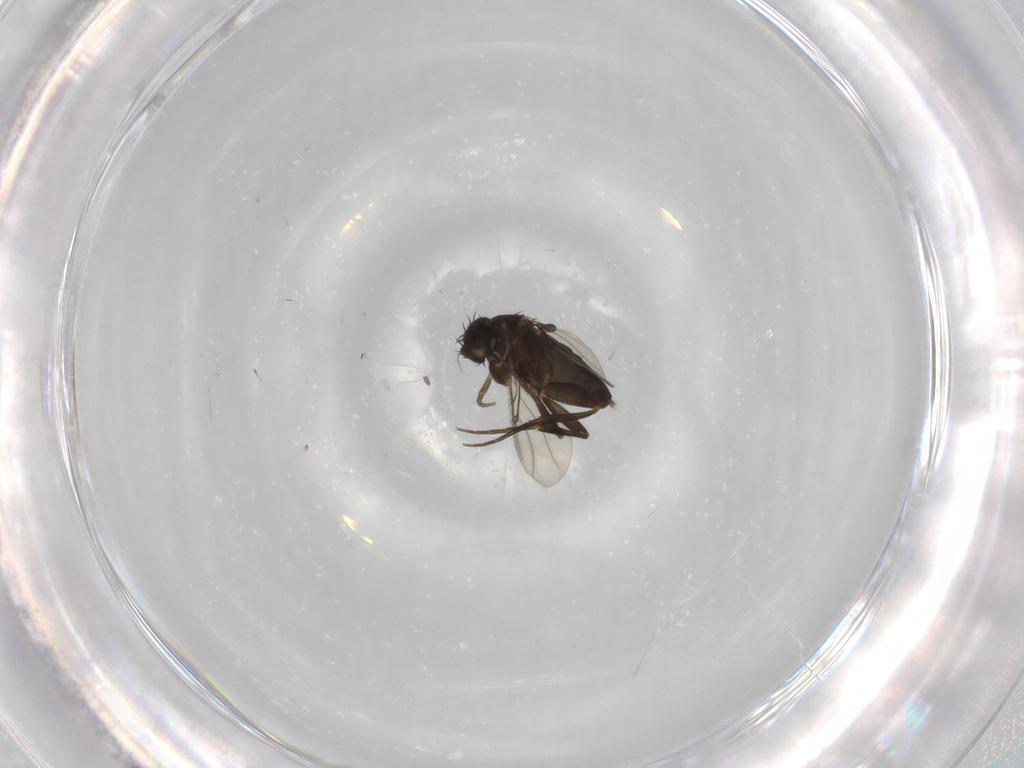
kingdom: Animalia
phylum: Arthropoda
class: Insecta
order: Diptera
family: Phoridae
